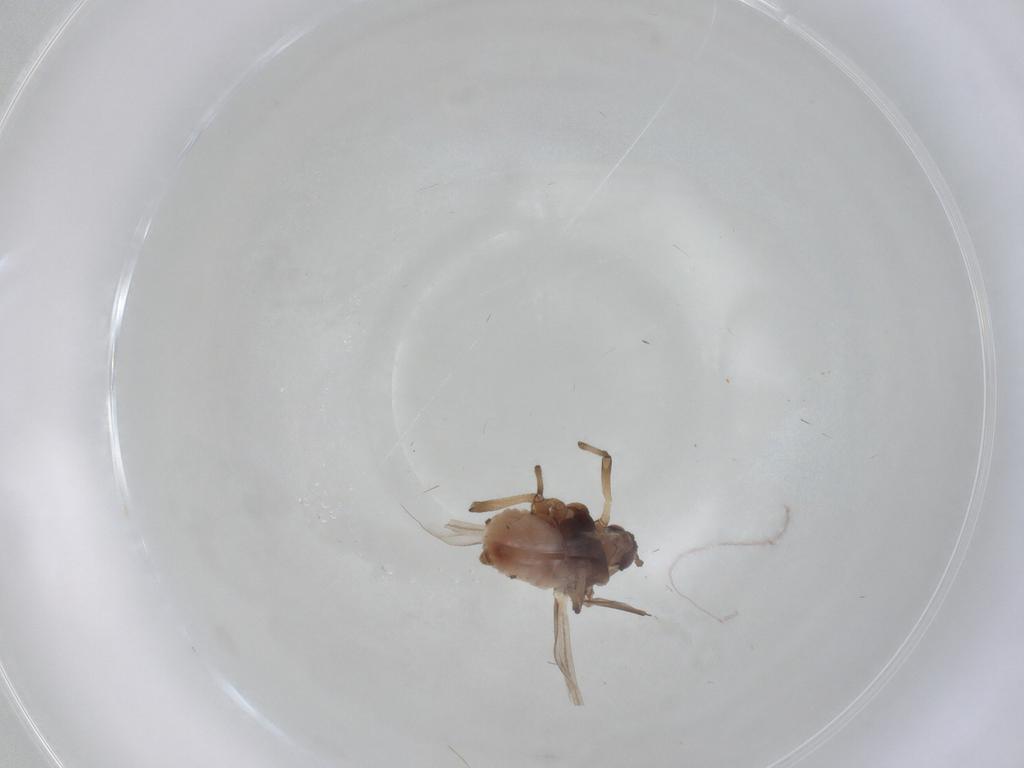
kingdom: Animalia
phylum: Arthropoda
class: Insecta
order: Hemiptera
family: Aphididae
